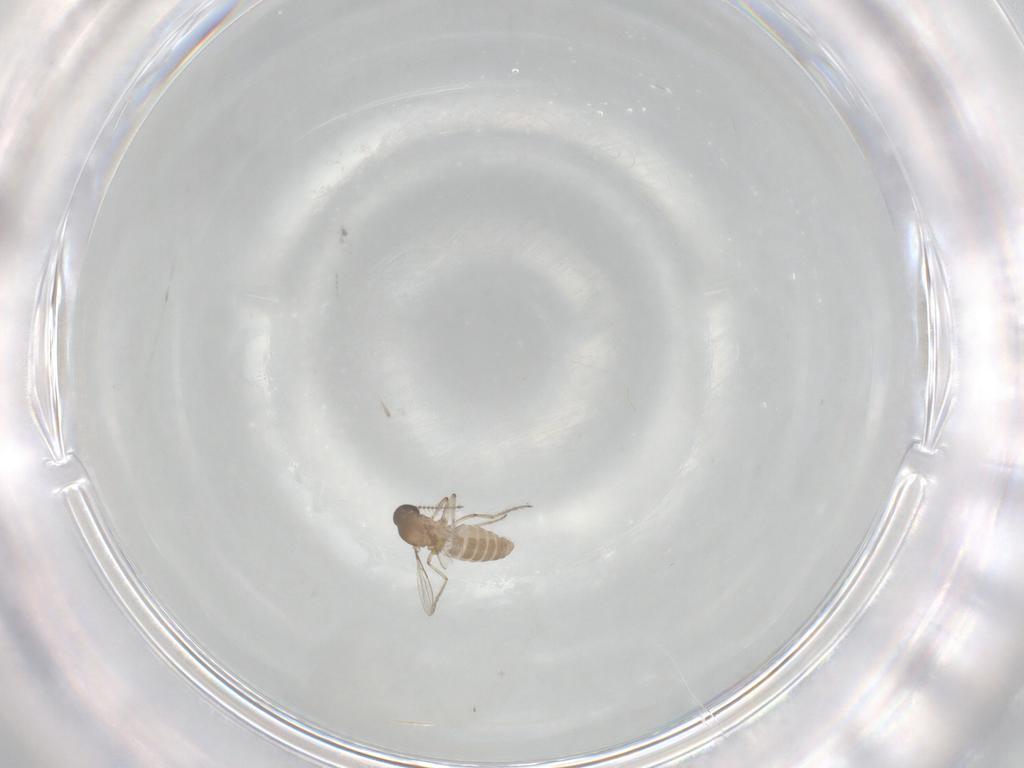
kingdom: Animalia
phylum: Arthropoda
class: Insecta
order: Diptera
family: Ceratopogonidae
